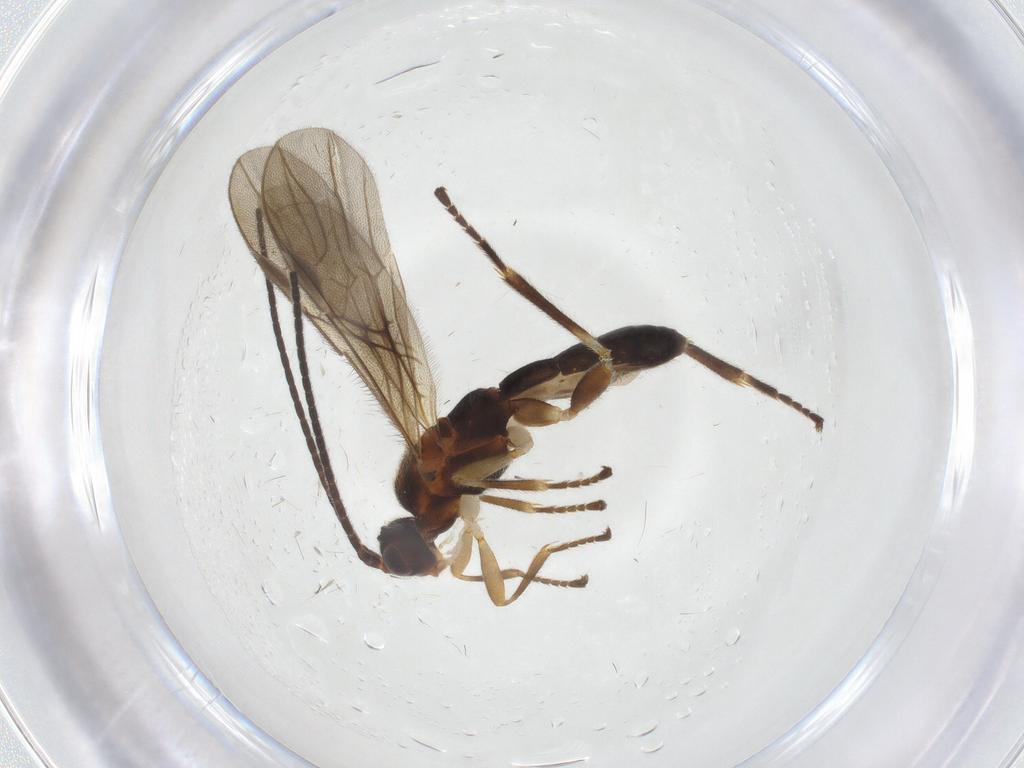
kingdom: Animalia
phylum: Arthropoda
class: Insecta
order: Hymenoptera
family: Braconidae
